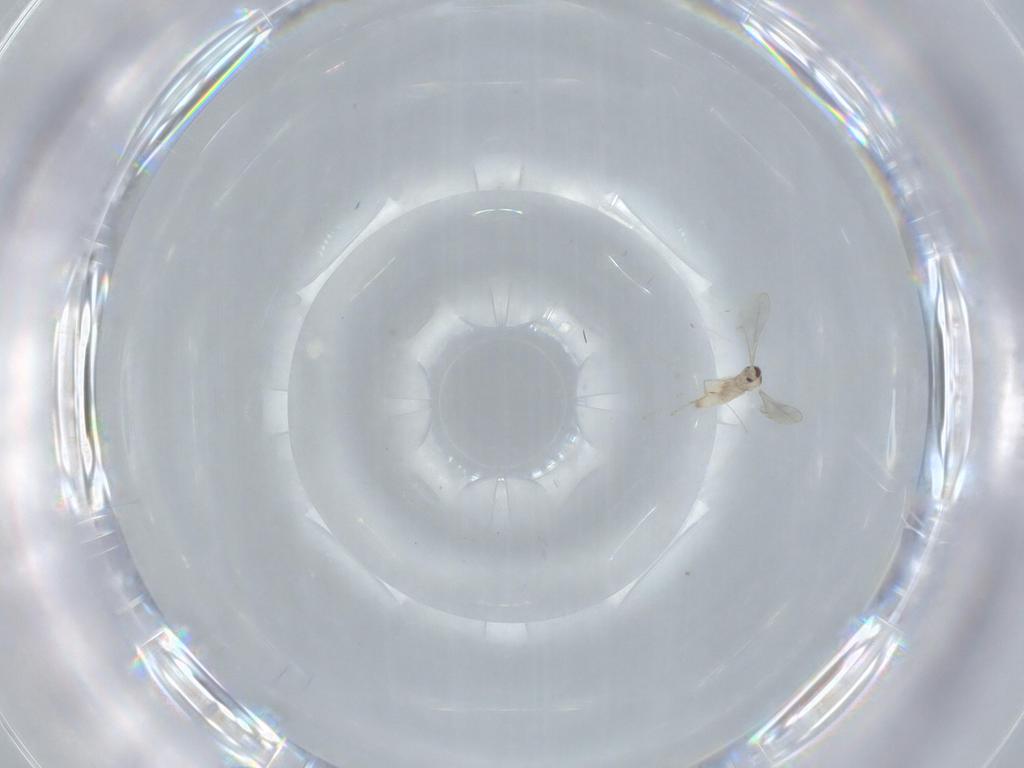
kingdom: Animalia
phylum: Arthropoda
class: Insecta
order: Diptera
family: Cecidomyiidae
